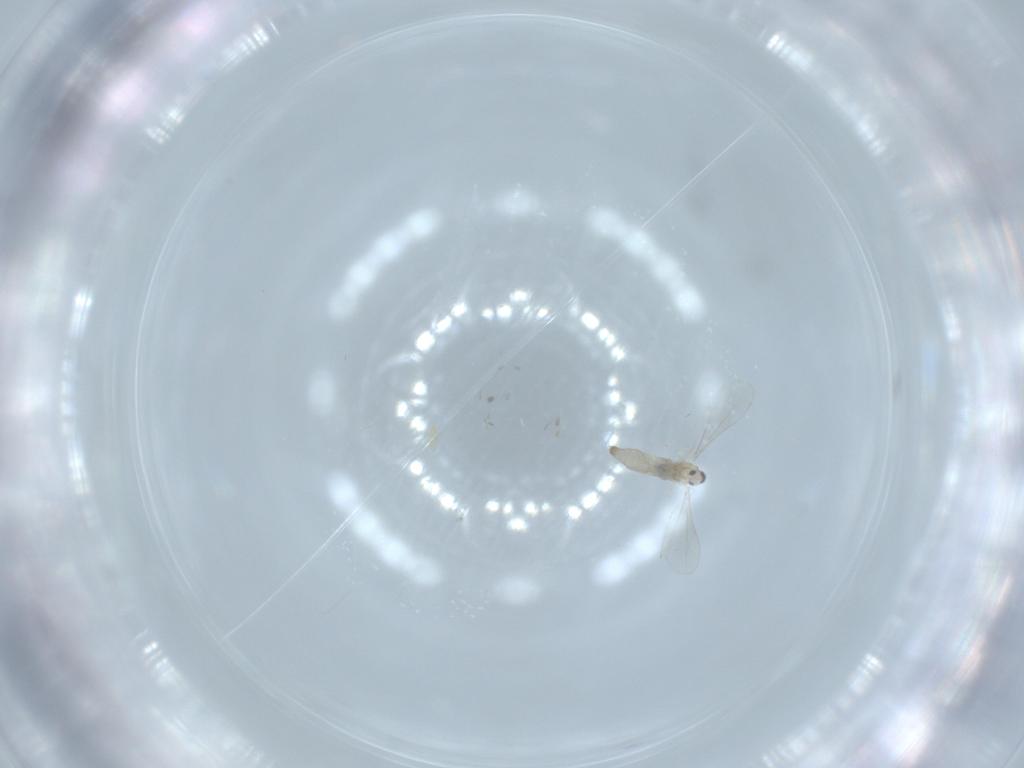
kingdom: Animalia
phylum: Arthropoda
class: Insecta
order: Diptera
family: Cecidomyiidae
